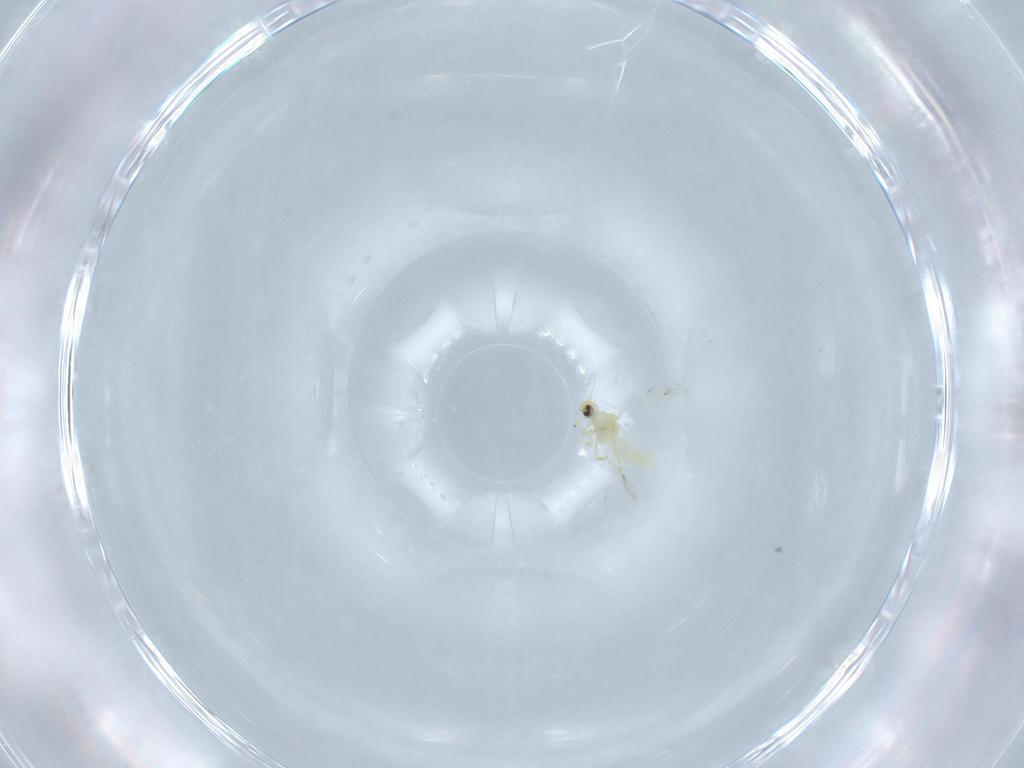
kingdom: Animalia
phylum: Arthropoda
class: Insecta
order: Hemiptera
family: Aleyrodidae
